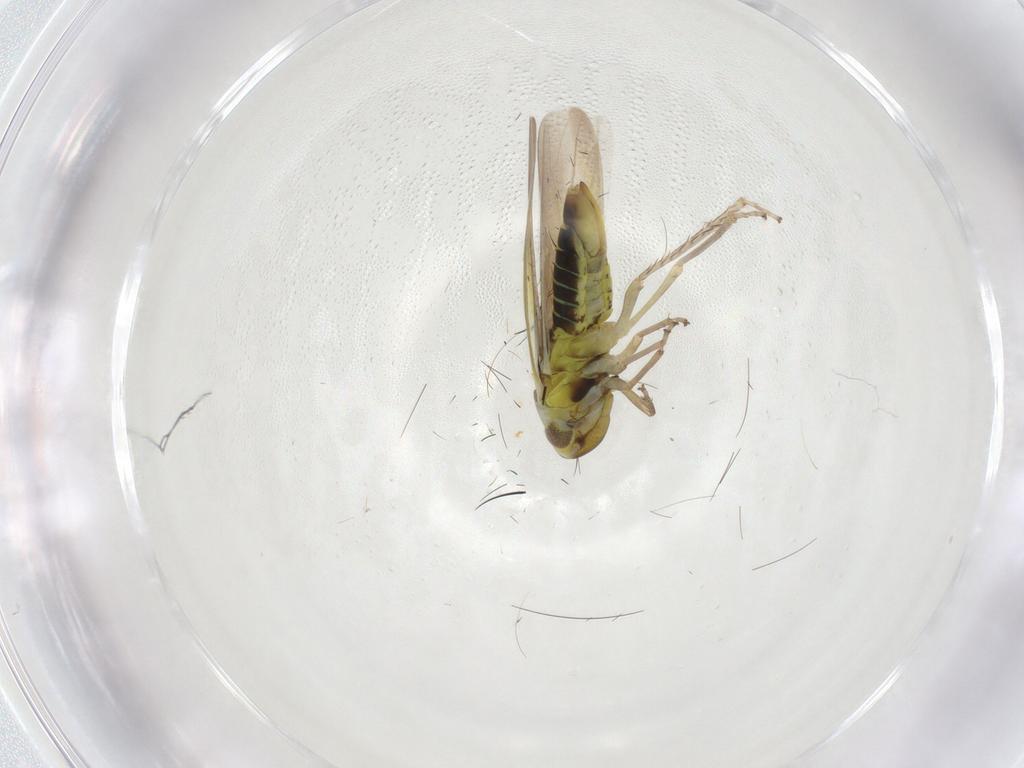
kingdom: Animalia
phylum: Arthropoda
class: Insecta
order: Hemiptera
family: Cicadellidae
